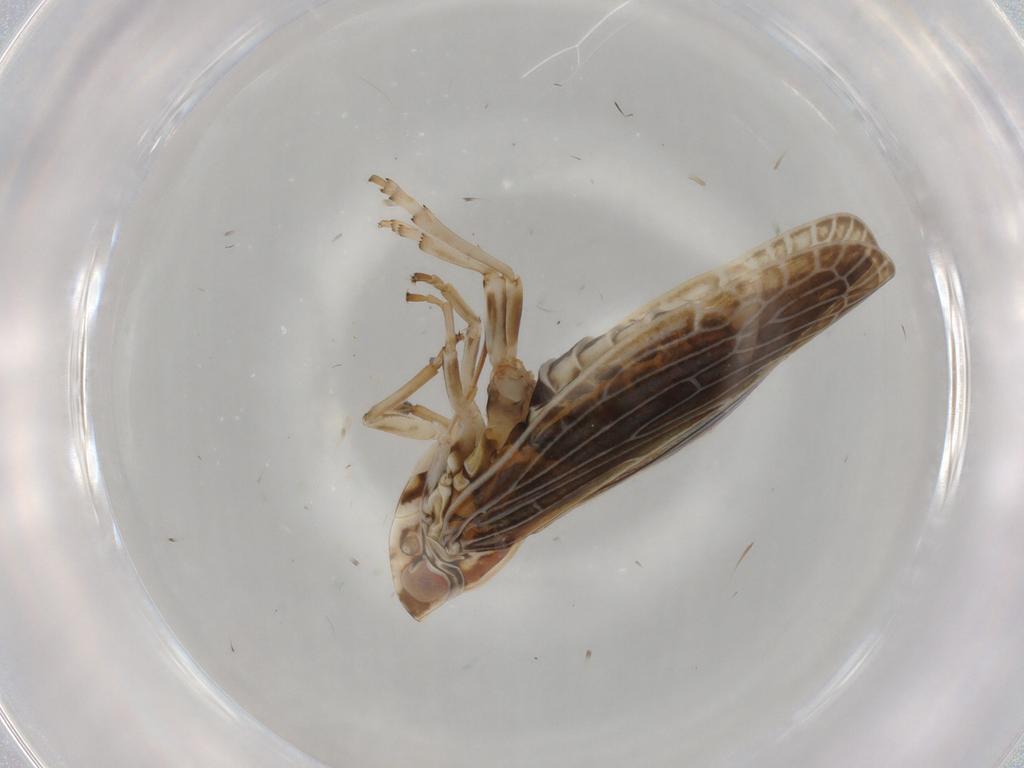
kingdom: Animalia
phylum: Arthropoda
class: Insecta
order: Hemiptera
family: Achilidae
